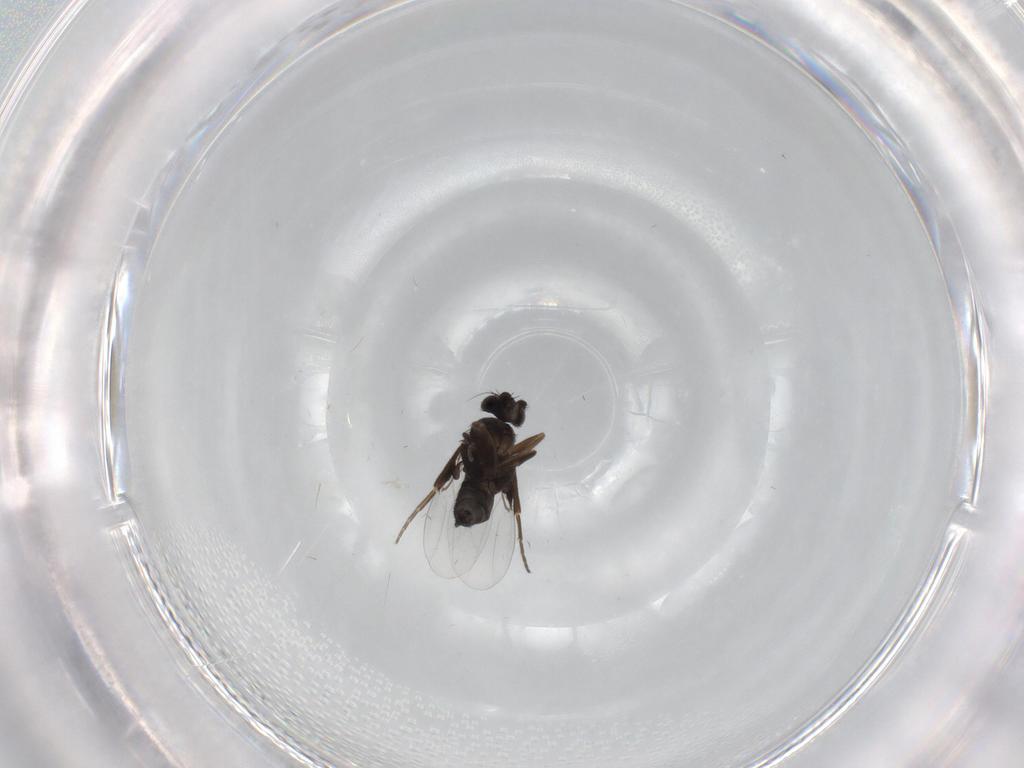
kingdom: Animalia
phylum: Arthropoda
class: Insecta
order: Diptera
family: Phoridae
